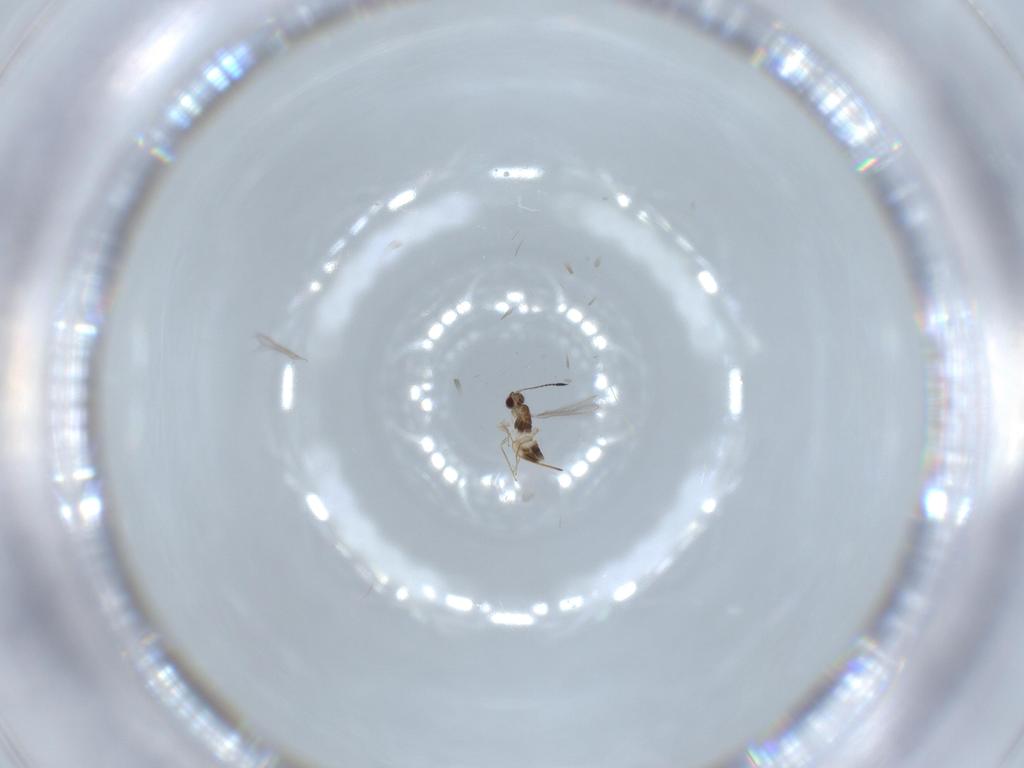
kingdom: Animalia
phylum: Arthropoda
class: Insecta
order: Hymenoptera
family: Mymaridae
